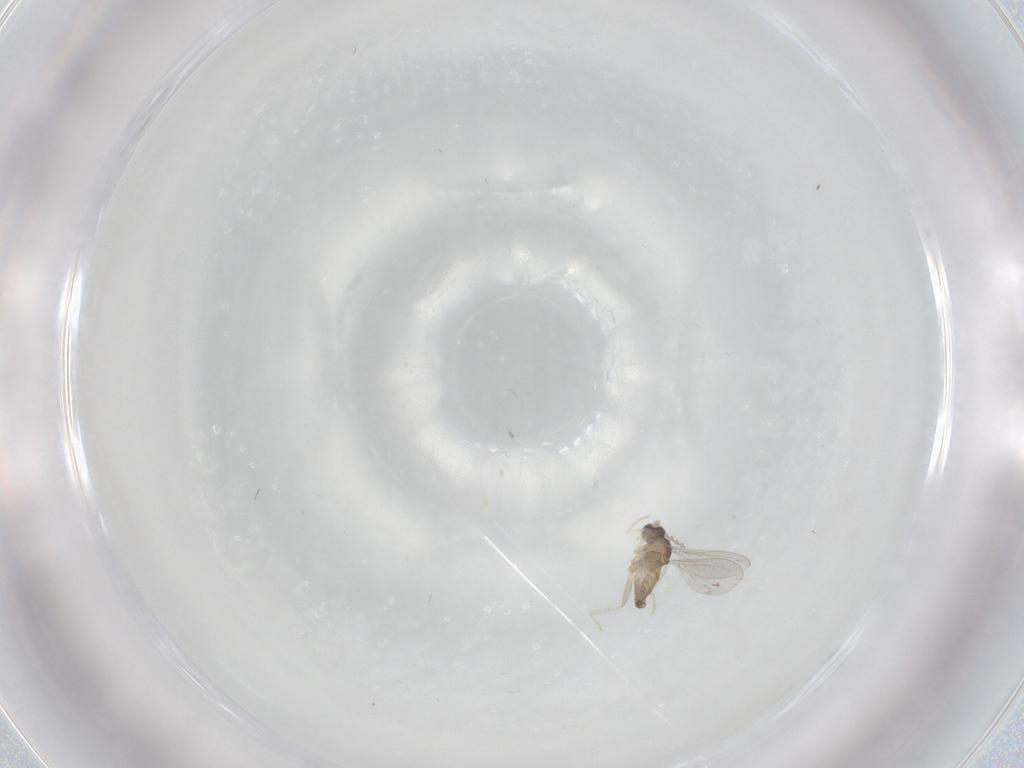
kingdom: Animalia
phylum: Arthropoda
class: Insecta
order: Diptera
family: Cecidomyiidae
